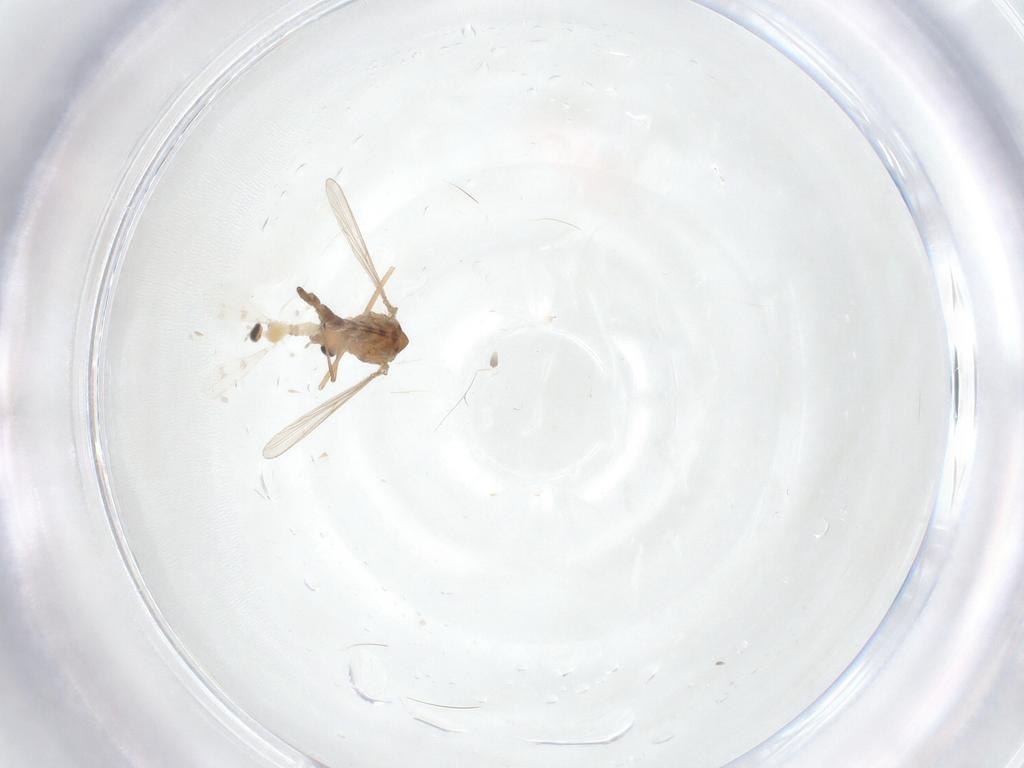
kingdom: Animalia
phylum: Arthropoda
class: Insecta
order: Diptera
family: Chironomidae
